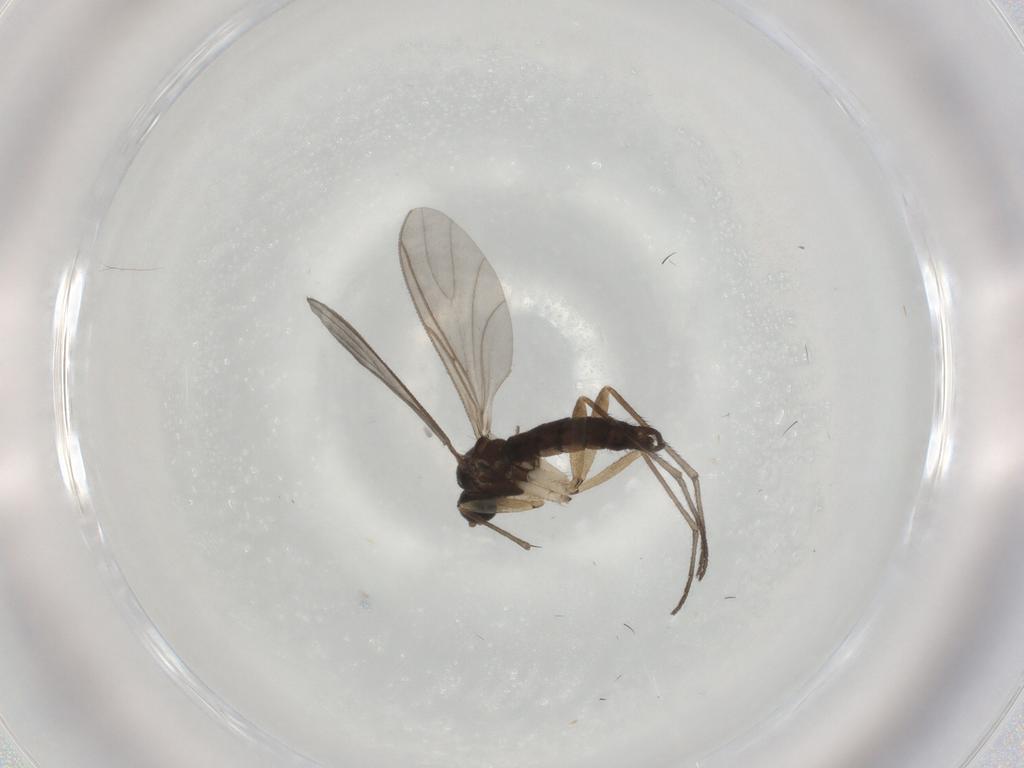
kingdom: Animalia
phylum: Arthropoda
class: Insecta
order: Diptera
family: Sciaridae
